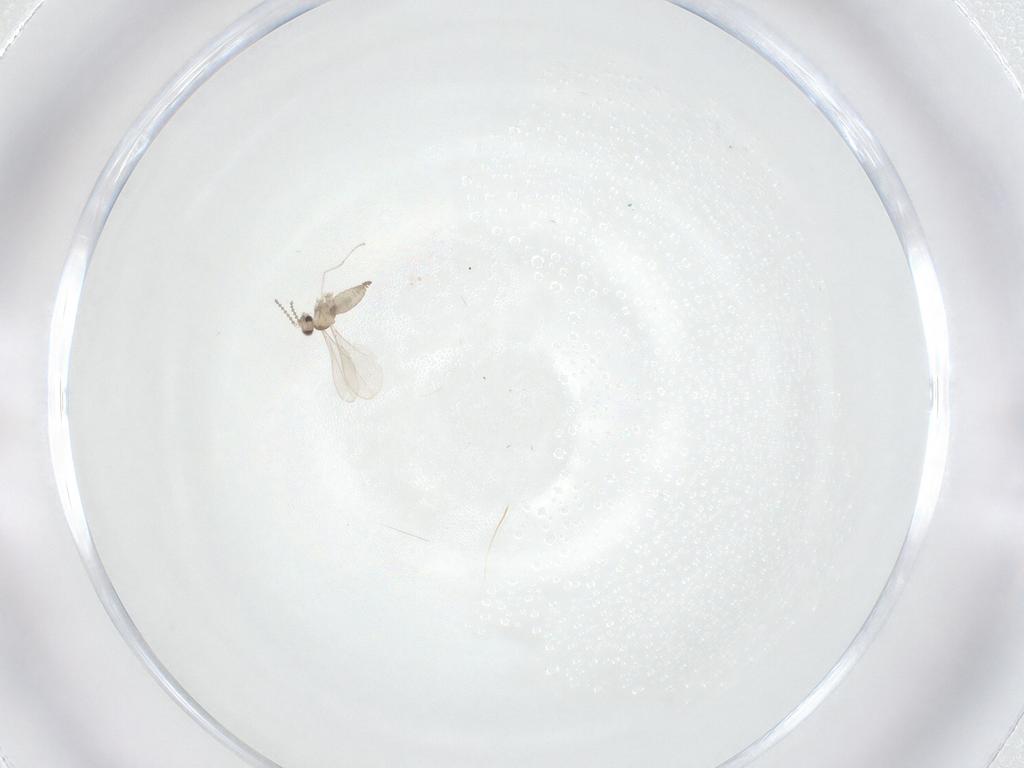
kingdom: Animalia
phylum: Arthropoda
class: Insecta
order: Diptera
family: Cecidomyiidae
